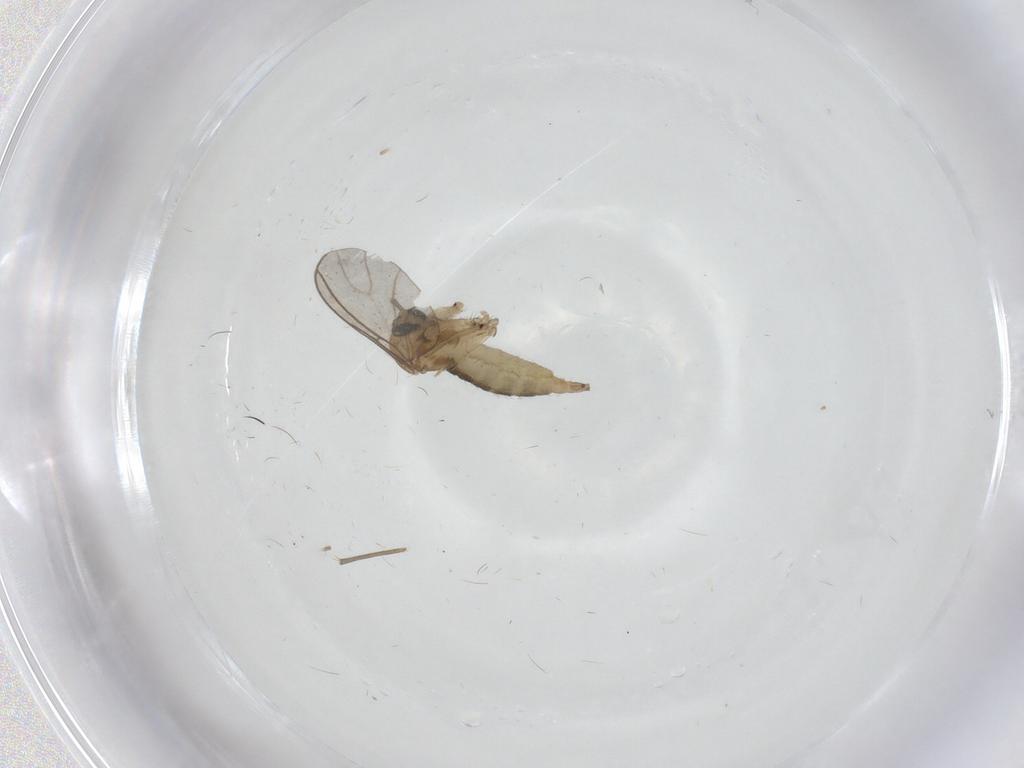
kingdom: Animalia
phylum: Arthropoda
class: Insecta
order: Diptera
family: Sciaridae
